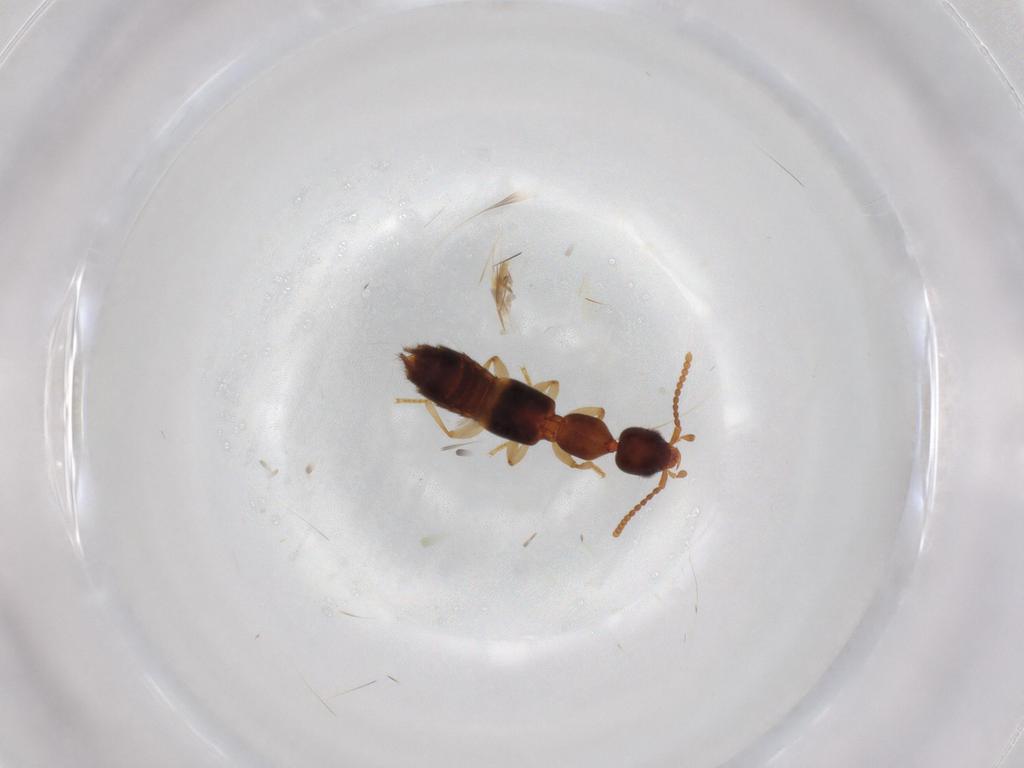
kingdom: Animalia
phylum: Arthropoda
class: Insecta
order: Coleoptera
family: Staphylinidae
